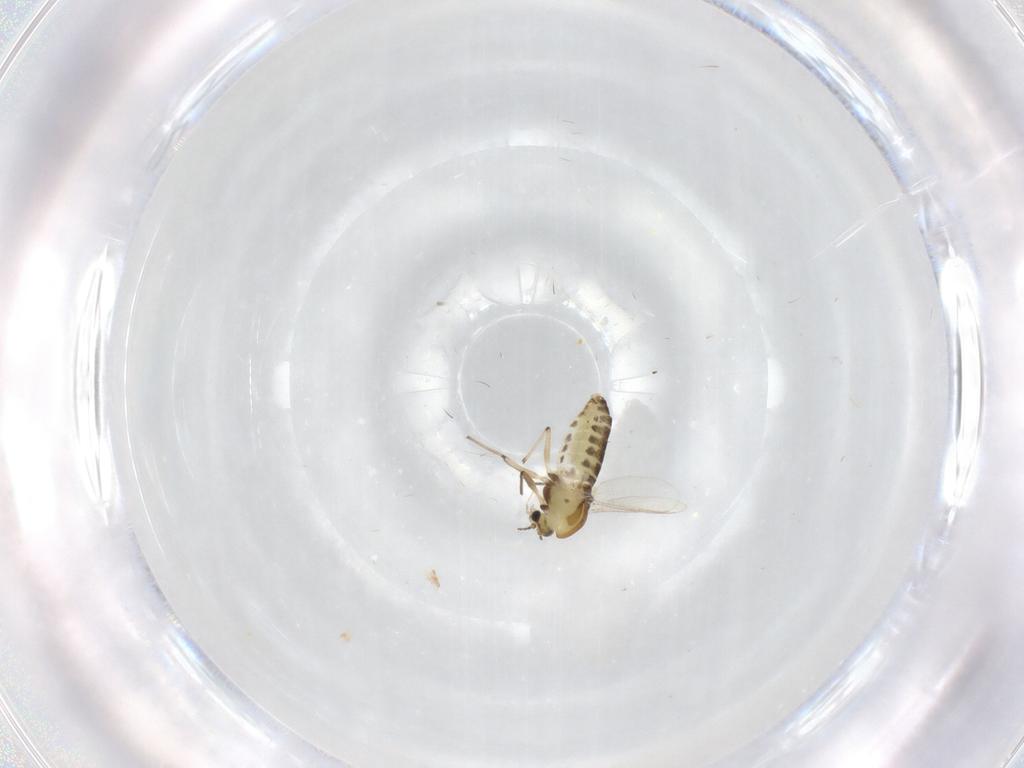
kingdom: Animalia
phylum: Arthropoda
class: Insecta
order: Diptera
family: Chironomidae
